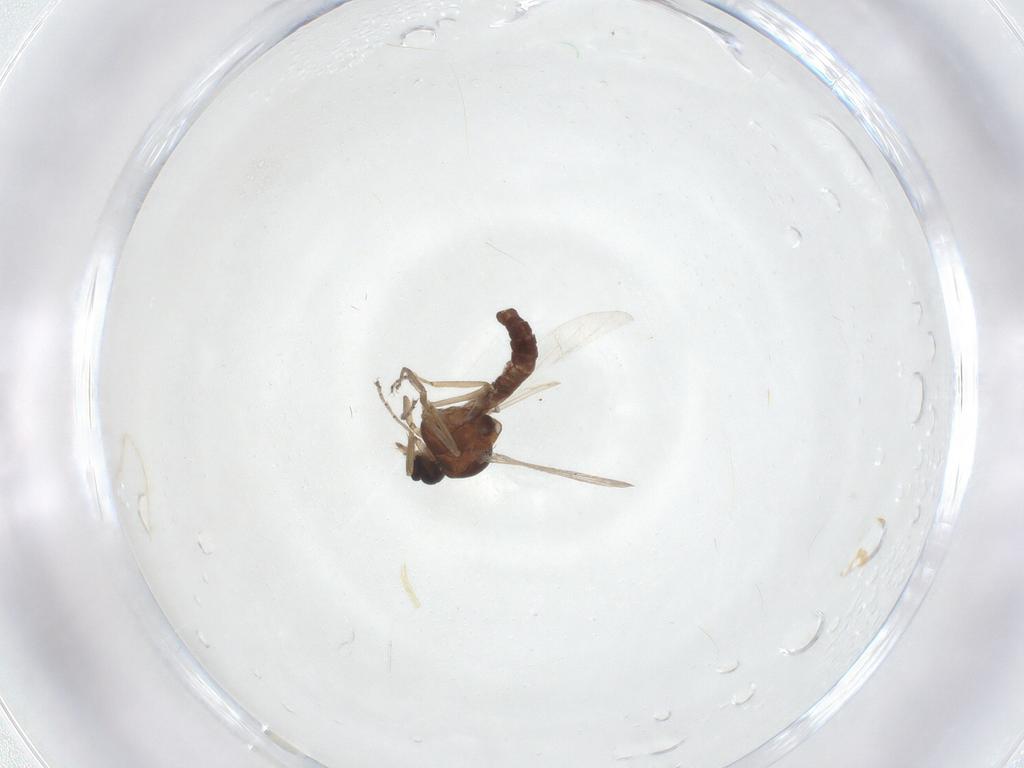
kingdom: Animalia
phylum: Arthropoda
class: Insecta
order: Diptera
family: Ceratopogonidae
